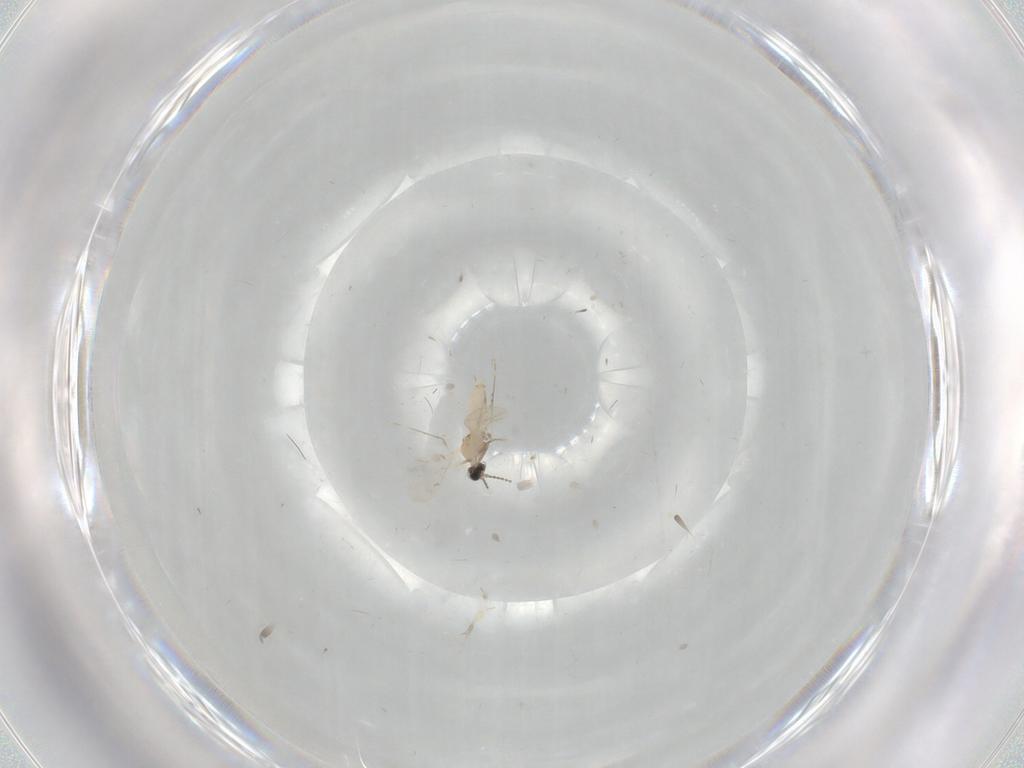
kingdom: Animalia
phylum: Arthropoda
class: Insecta
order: Diptera
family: Cecidomyiidae
